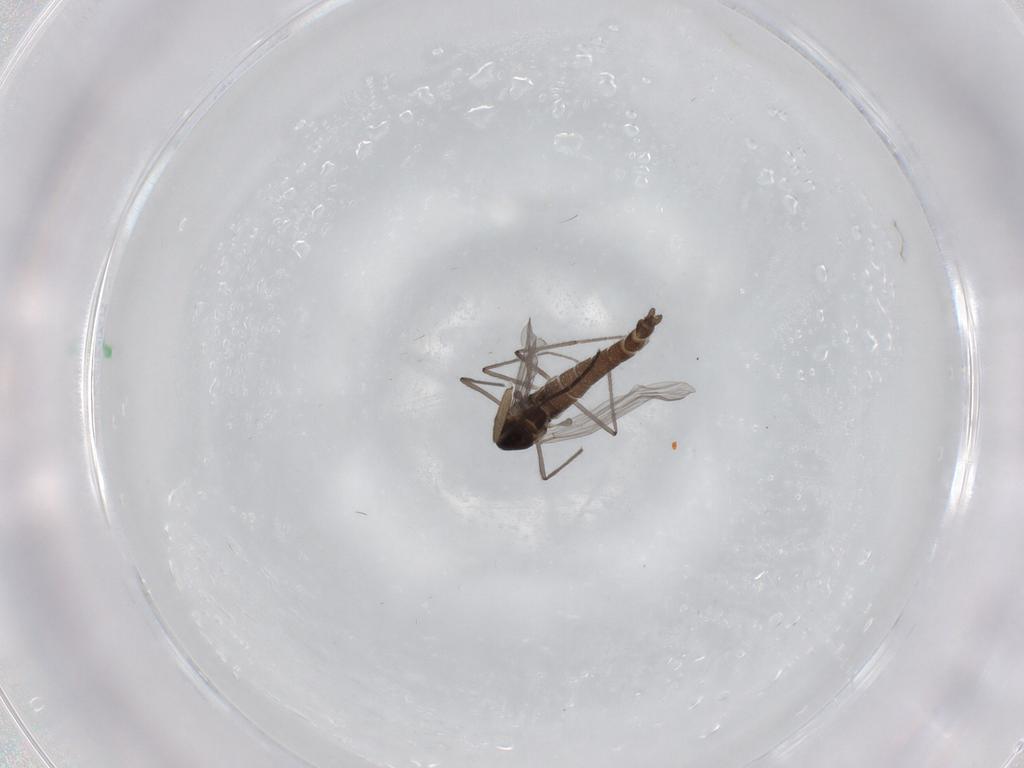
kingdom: Animalia
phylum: Arthropoda
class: Insecta
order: Diptera
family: Chironomidae
